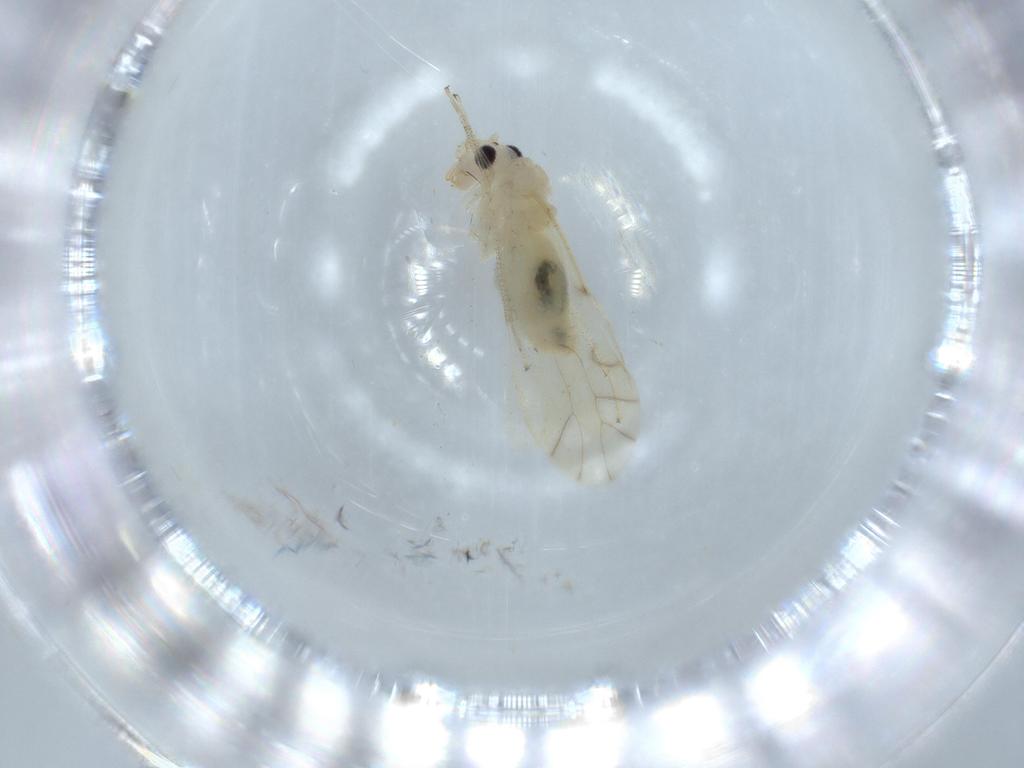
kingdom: Animalia
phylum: Arthropoda
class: Insecta
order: Psocodea
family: Caeciliusidae
